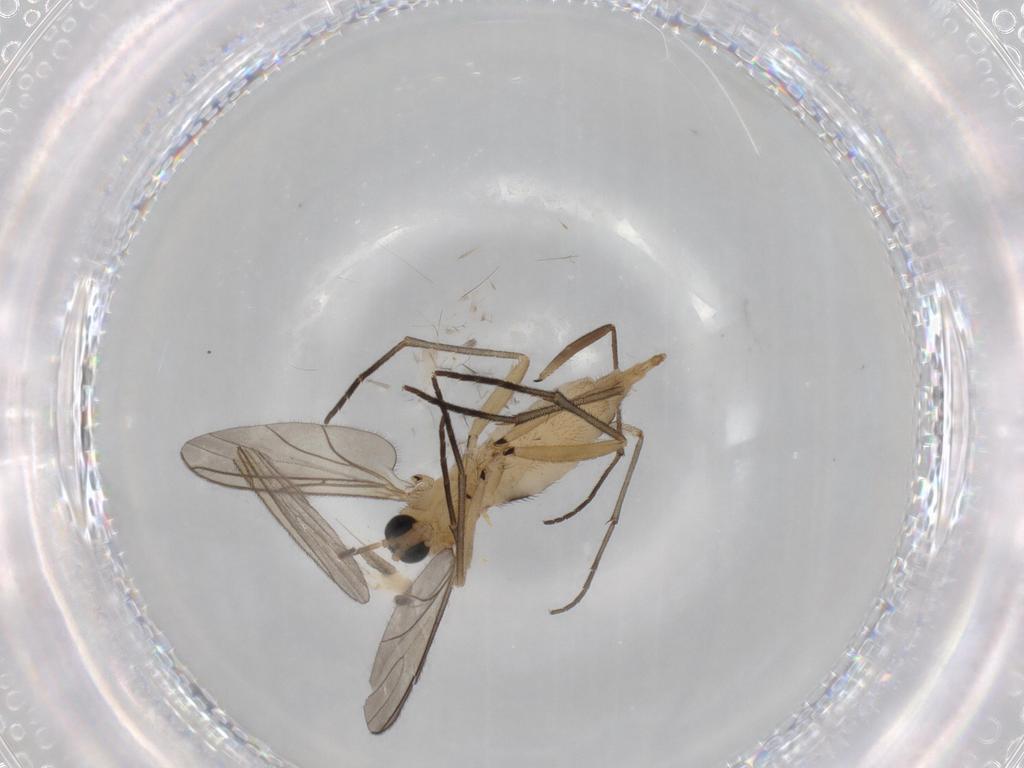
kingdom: Animalia
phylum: Arthropoda
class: Insecta
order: Diptera
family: Sciaridae
